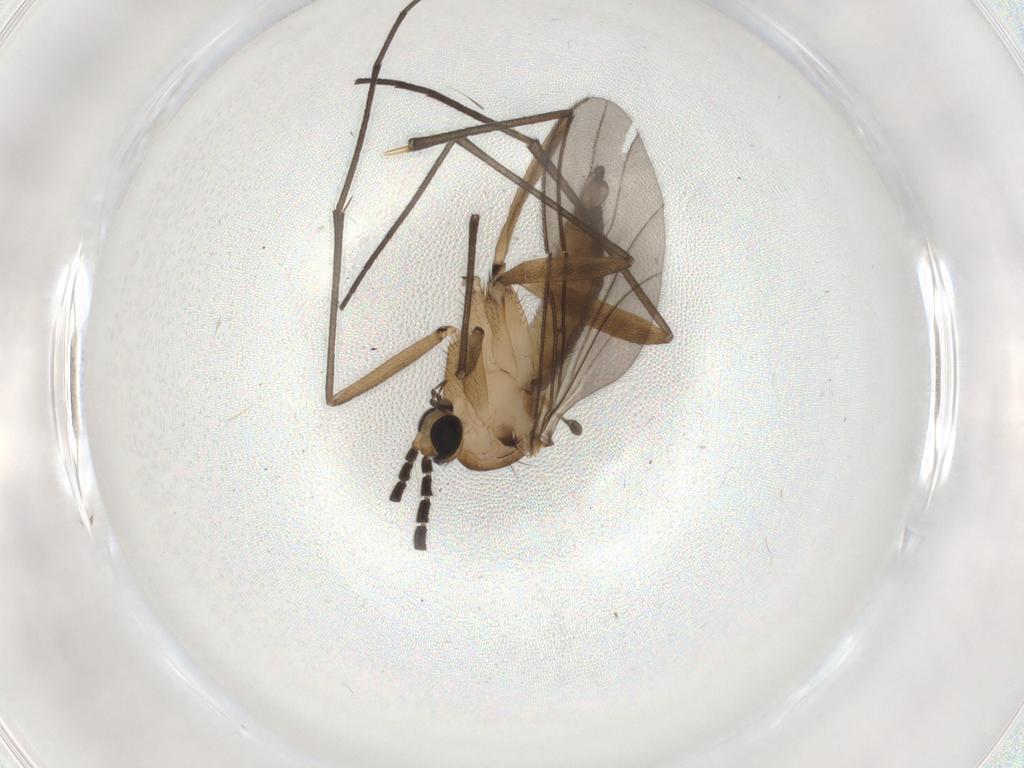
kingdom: Animalia
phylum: Arthropoda
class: Insecta
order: Diptera
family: Sciaridae
